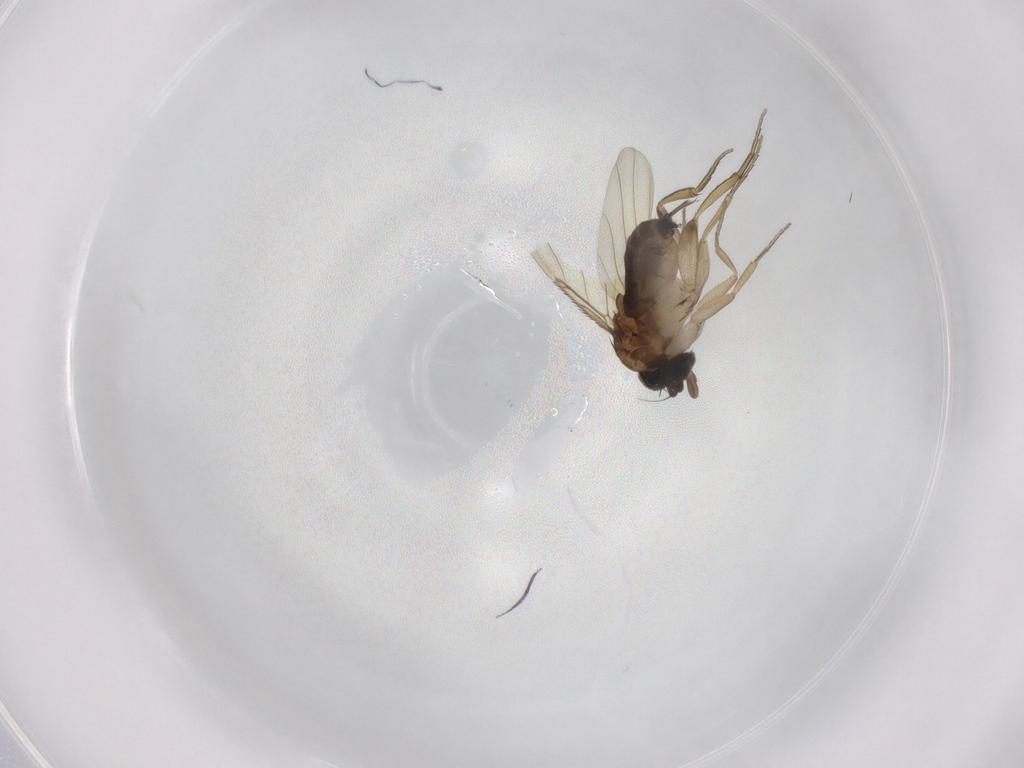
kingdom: Animalia
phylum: Arthropoda
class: Insecta
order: Diptera
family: Phoridae
